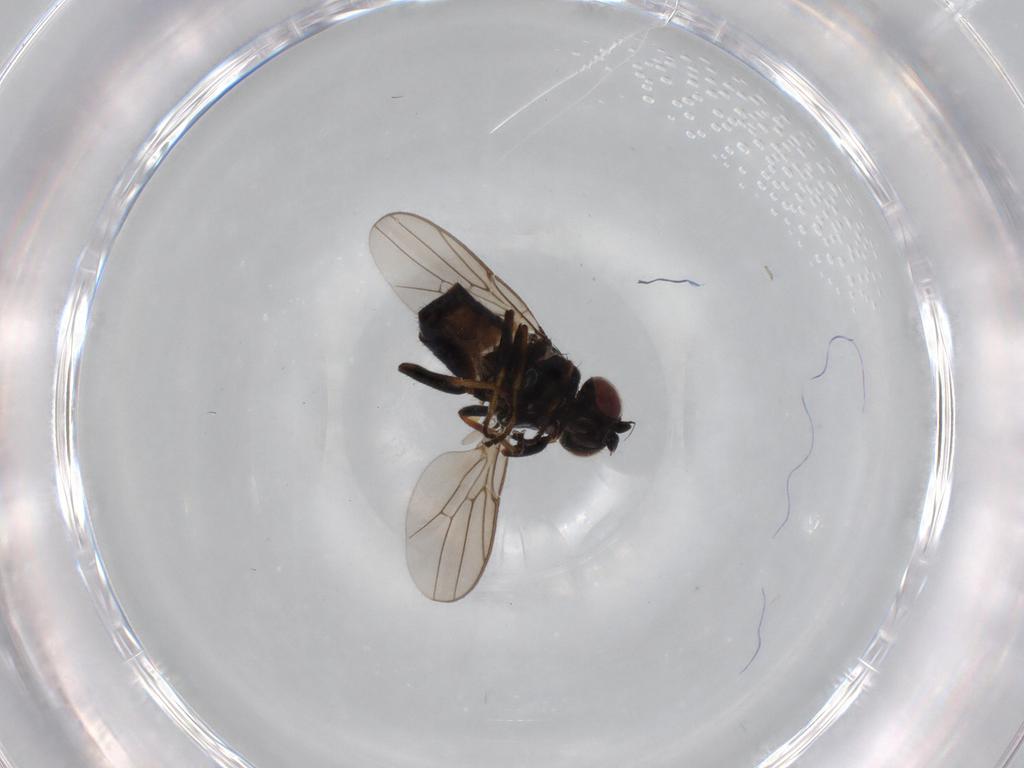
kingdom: Animalia
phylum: Arthropoda
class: Insecta
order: Diptera
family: Chloropidae
